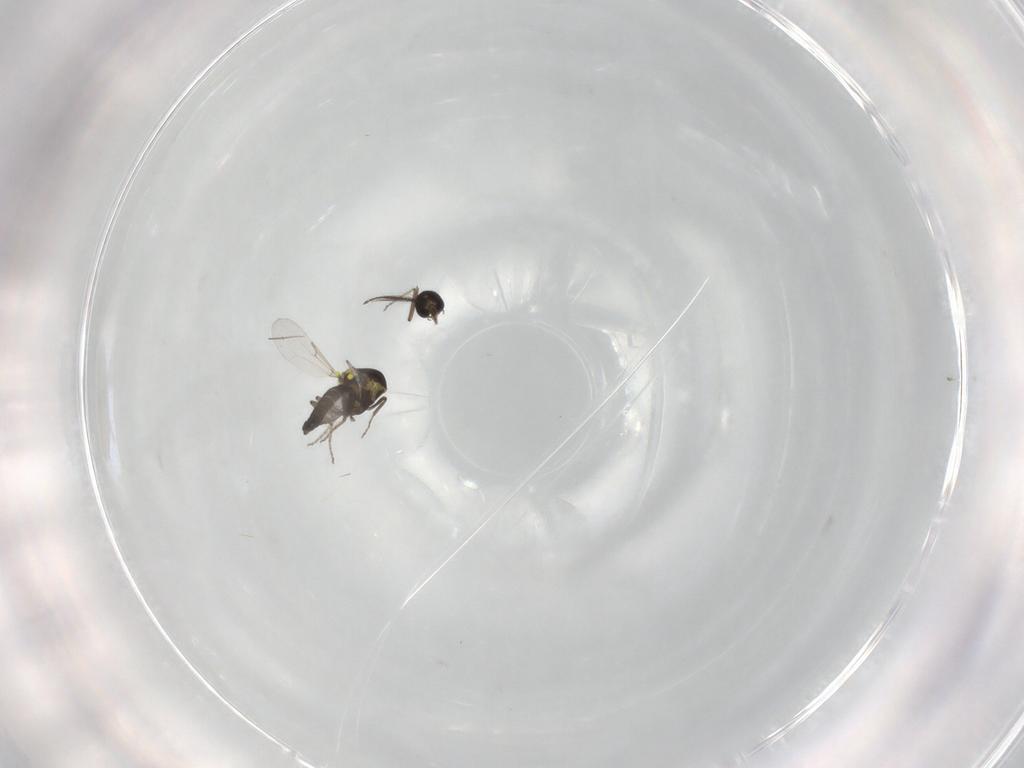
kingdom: Animalia
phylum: Arthropoda
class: Insecta
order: Diptera
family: Ceratopogonidae
